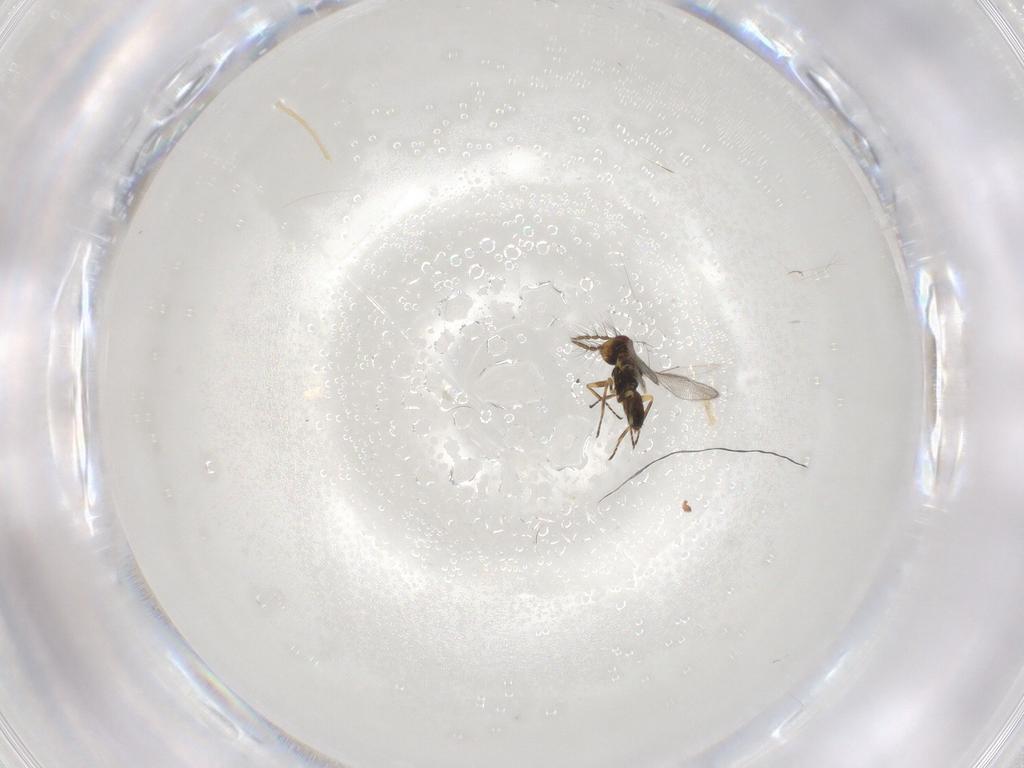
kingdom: Animalia
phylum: Arthropoda
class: Insecta
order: Hymenoptera
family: Eulophidae
